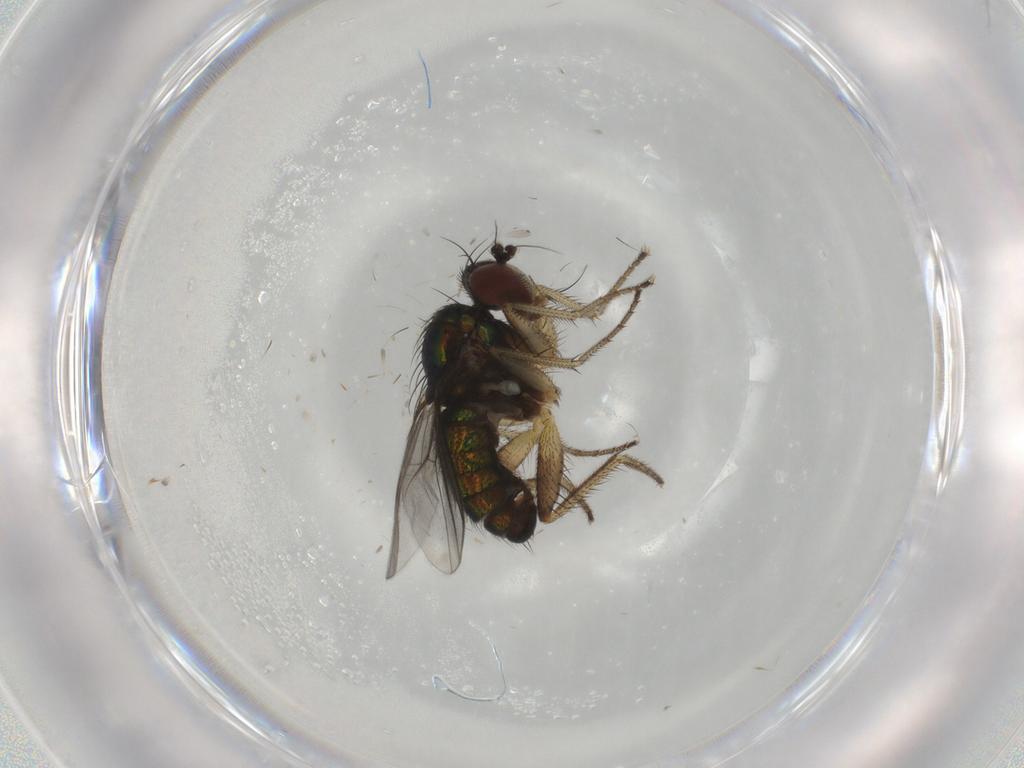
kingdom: Animalia
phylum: Arthropoda
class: Insecta
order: Diptera
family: Dolichopodidae
